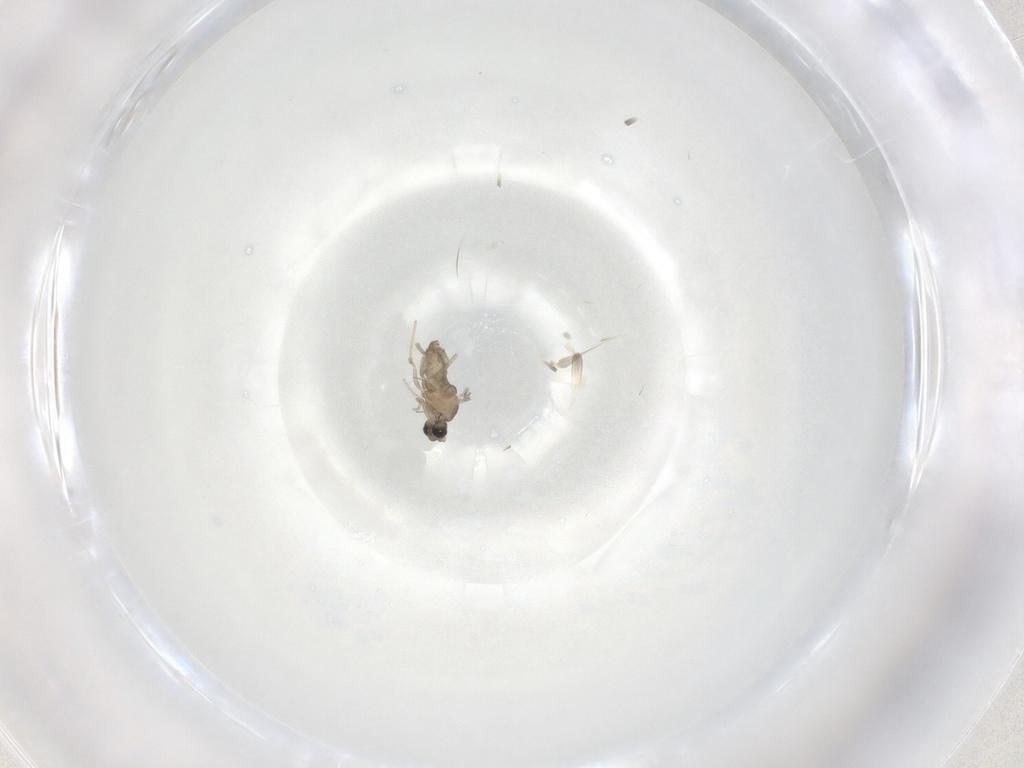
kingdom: Animalia
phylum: Arthropoda
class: Insecta
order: Diptera
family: Cecidomyiidae
